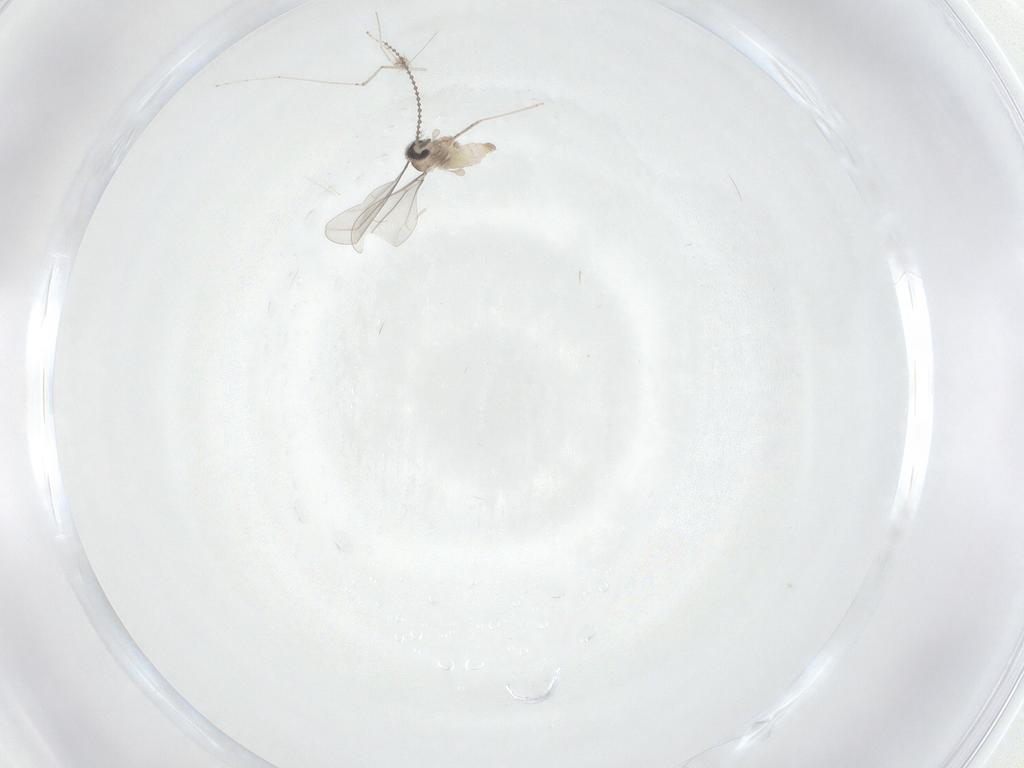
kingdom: Animalia
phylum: Arthropoda
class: Insecta
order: Diptera
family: Cecidomyiidae
